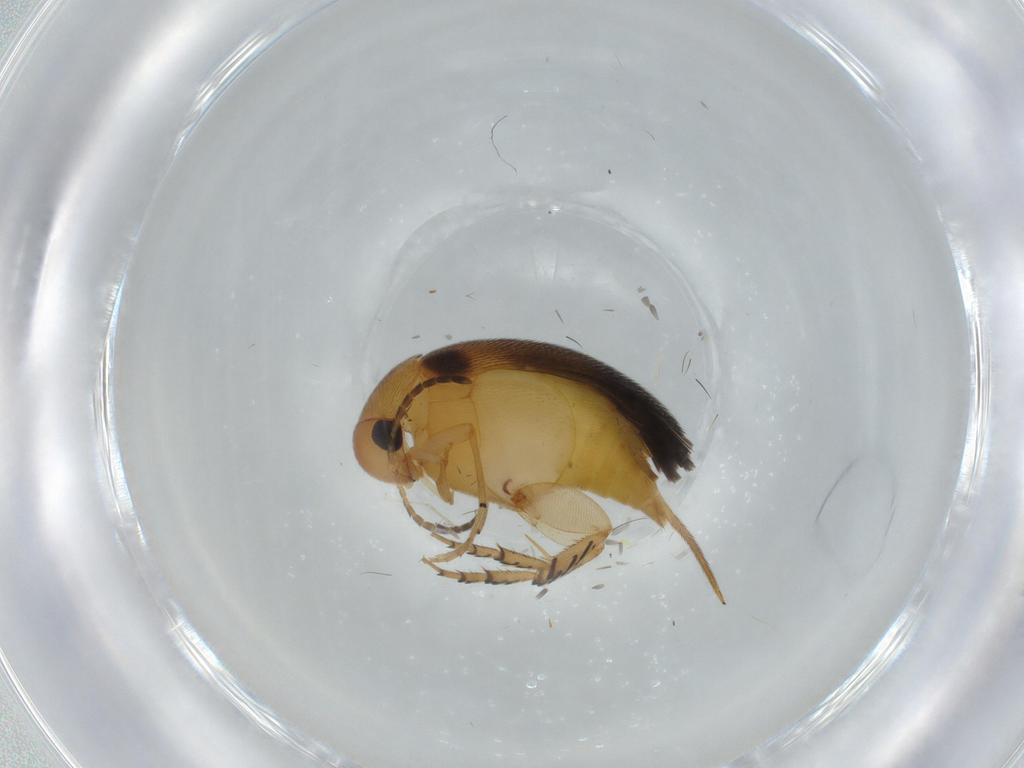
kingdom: Animalia
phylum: Arthropoda
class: Insecta
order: Coleoptera
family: Mordellidae
